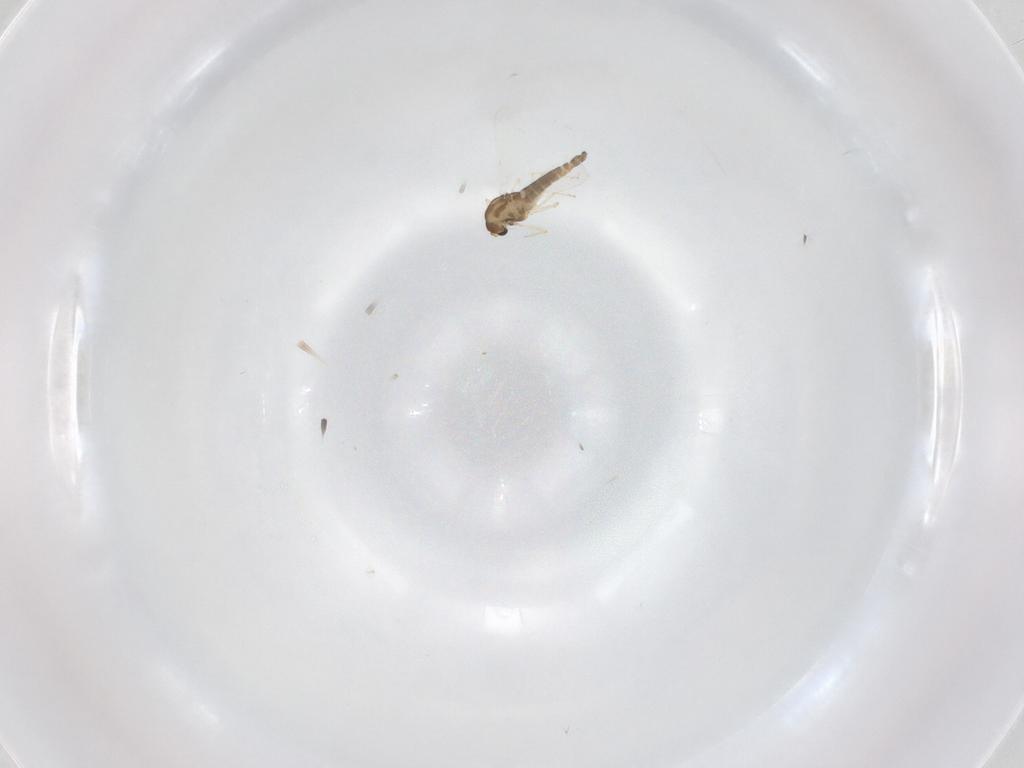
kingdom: Animalia
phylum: Arthropoda
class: Insecta
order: Diptera
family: Chironomidae
